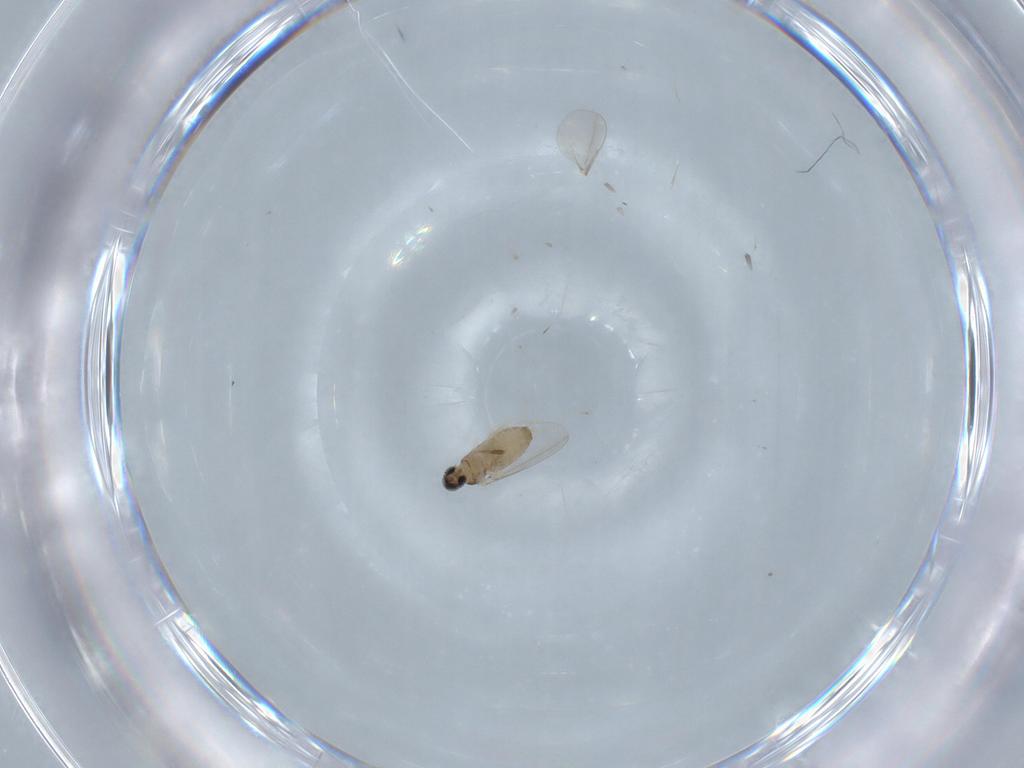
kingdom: Animalia
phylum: Arthropoda
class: Insecta
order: Diptera
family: Cecidomyiidae
